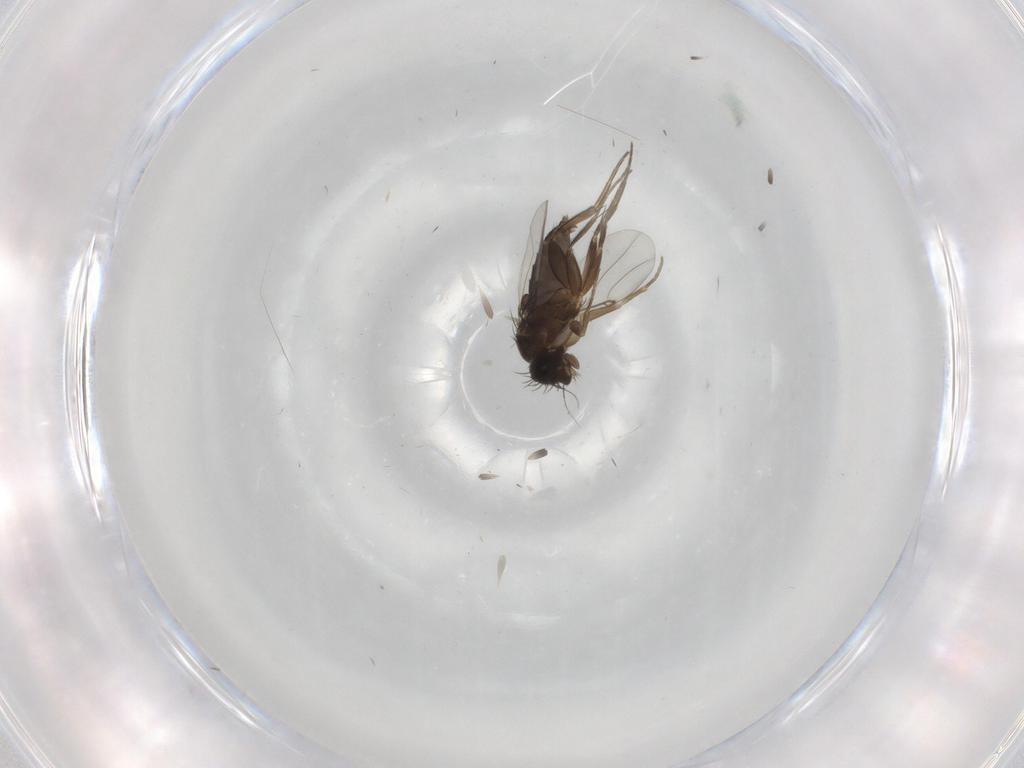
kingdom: Animalia
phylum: Arthropoda
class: Insecta
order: Diptera
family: Phoridae
